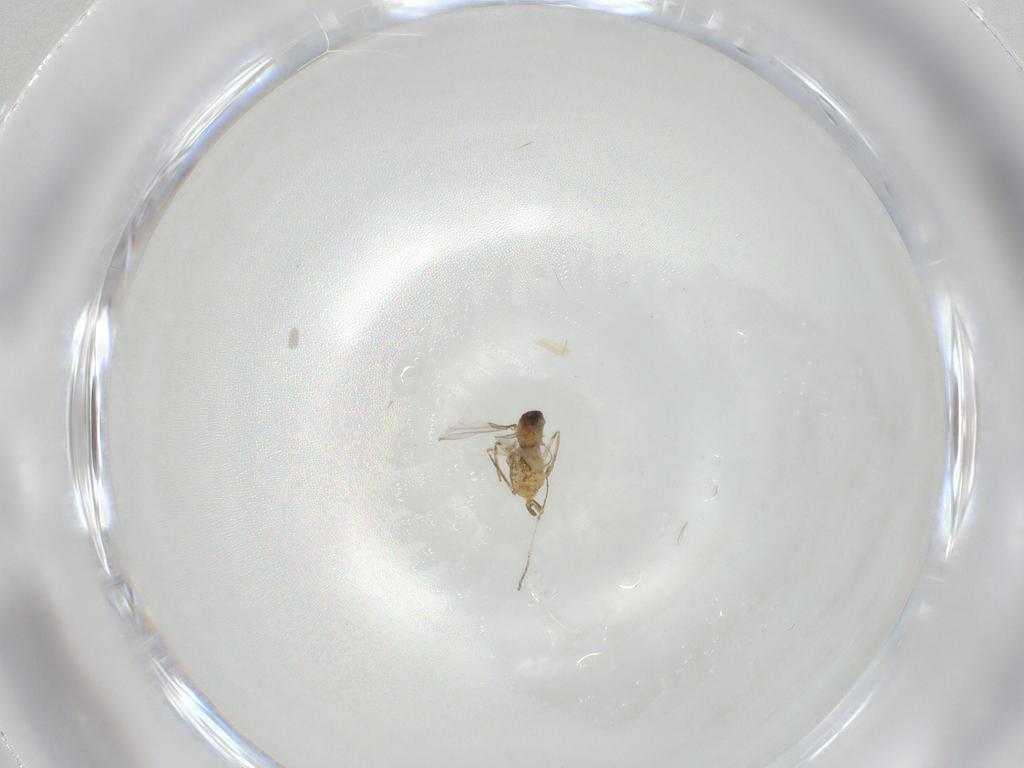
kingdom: Animalia
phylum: Arthropoda
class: Insecta
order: Diptera
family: Cecidomyiidae
